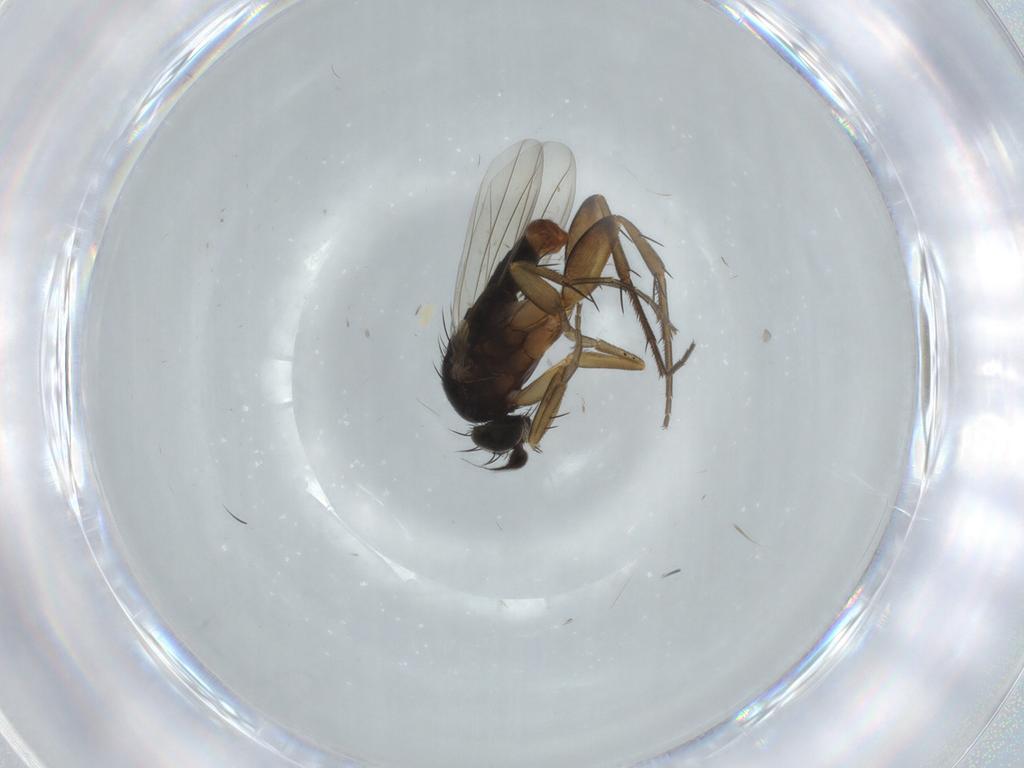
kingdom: Animalia
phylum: Arthropoda
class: Insecta
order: Diptera
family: Phoridae
